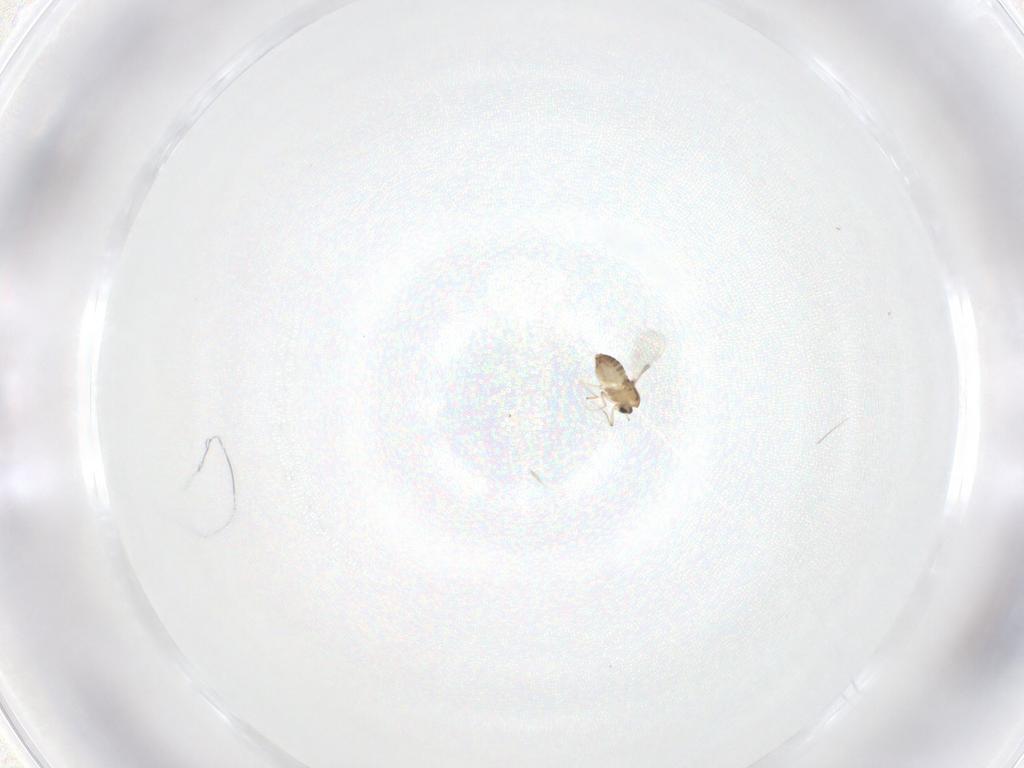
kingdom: Animalia
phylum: Arthropoda
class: Insecta
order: Diptera
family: Chironomidae
